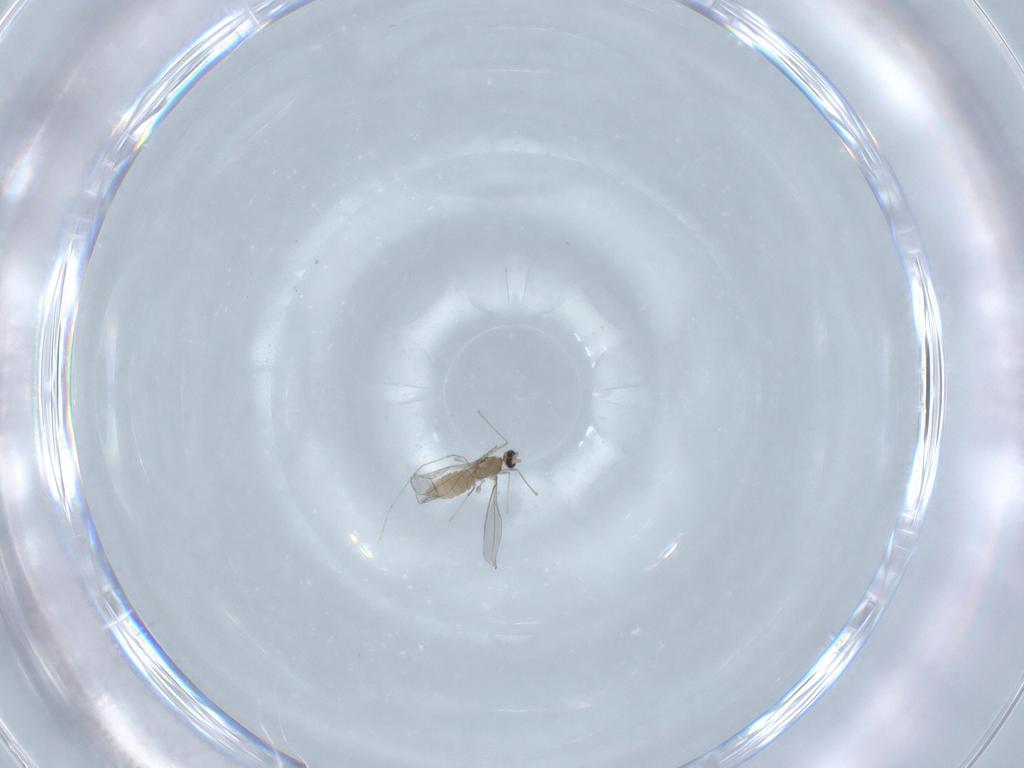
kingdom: Animalia
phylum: Arthropoda
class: Insecta
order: Diptera
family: Cecidomyiidae
